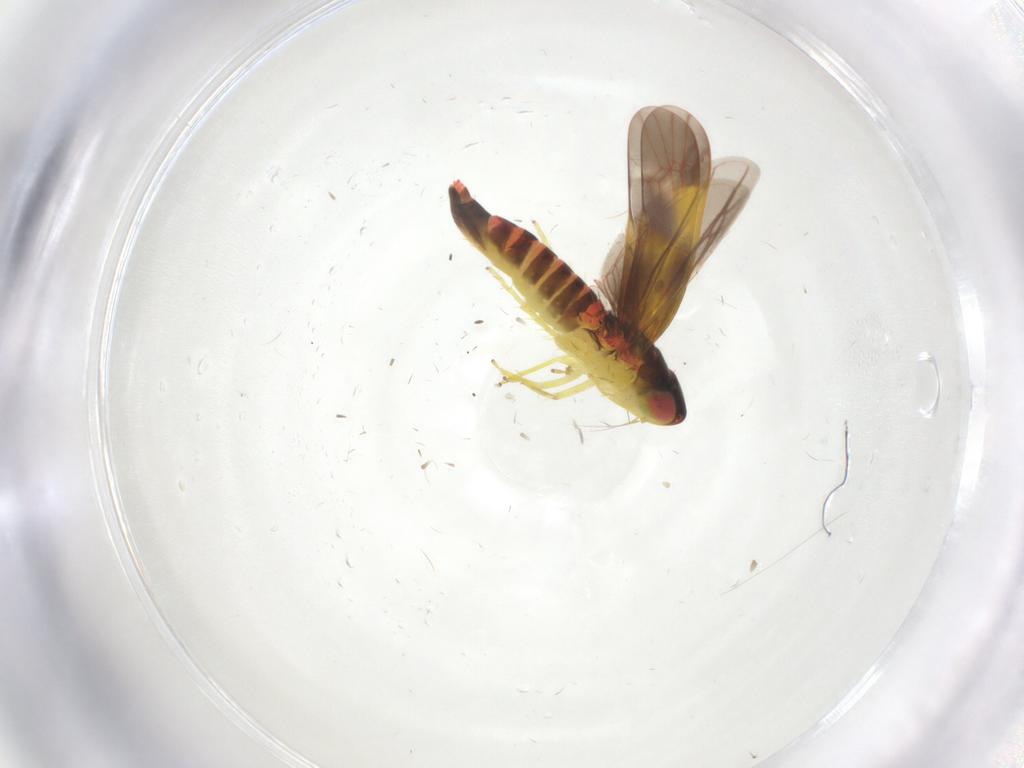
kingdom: Animalia
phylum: Arthropoda
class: Insecta
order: Hemiptera
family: Cicadellidae
